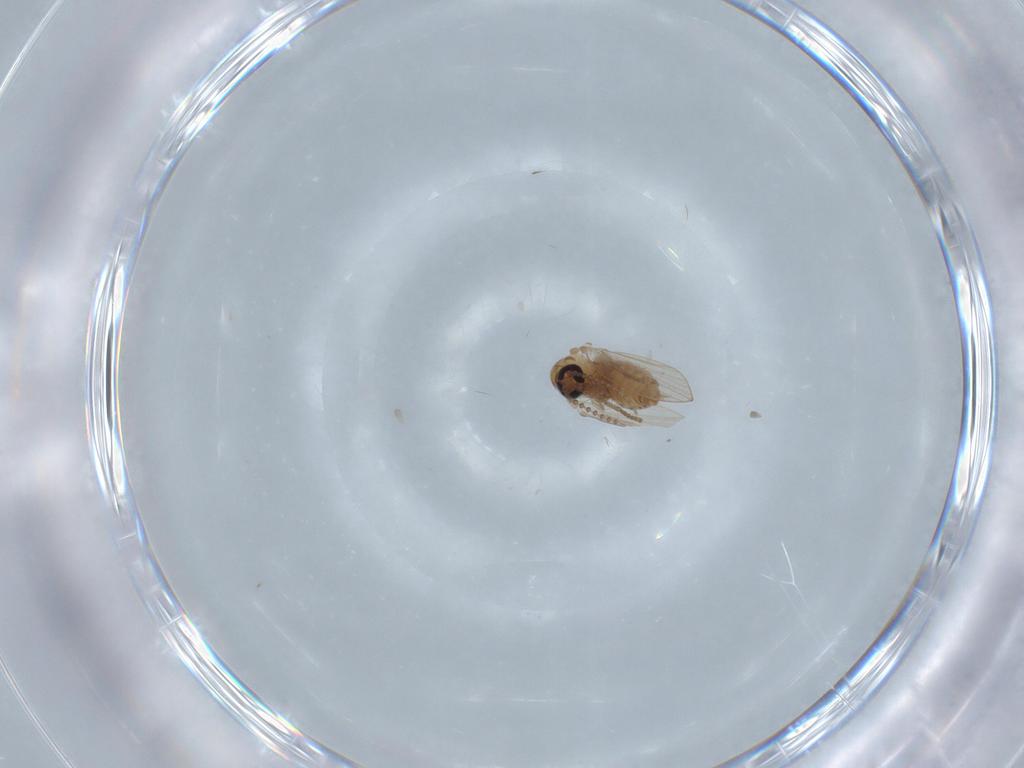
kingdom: Animalia
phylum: Arthropoda
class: Insecta
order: Diptera
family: Psychodidae
